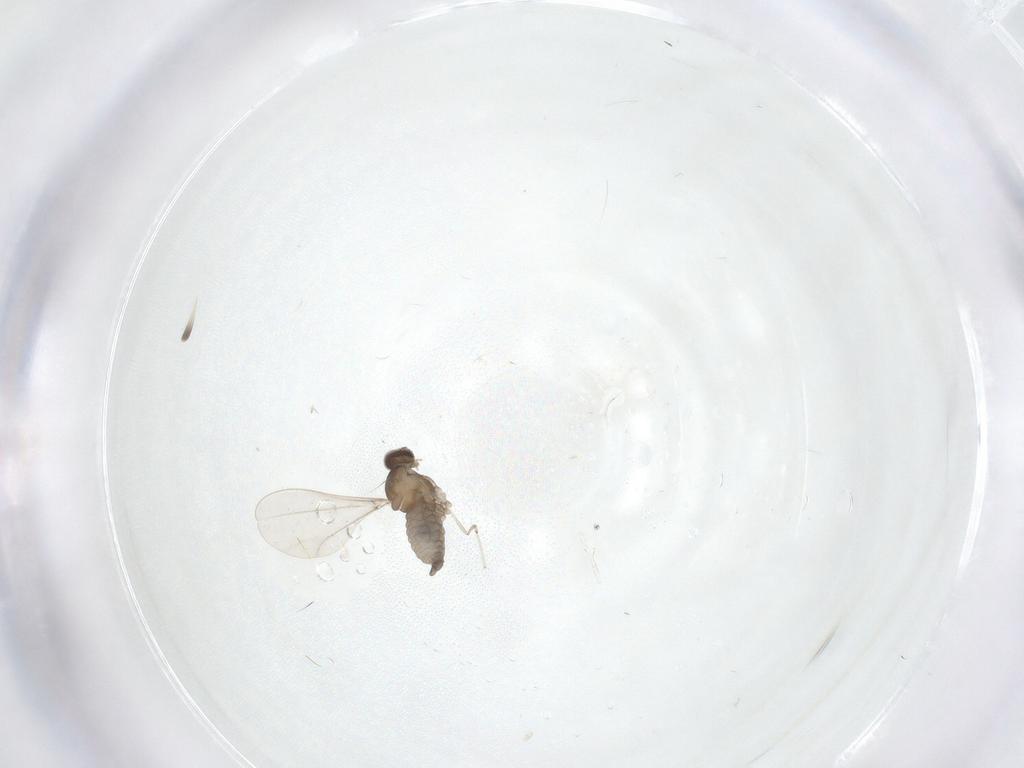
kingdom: Animalia
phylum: Arthropoda
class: Insecta
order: Diptera
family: Cecidomyiidae
